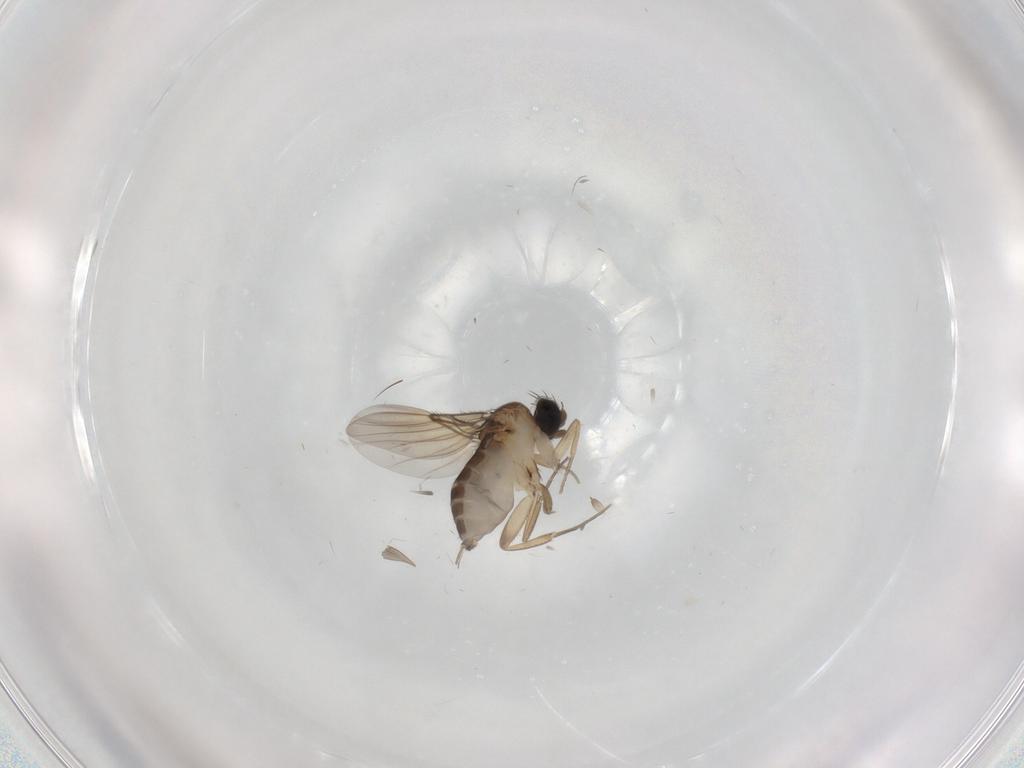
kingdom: Animalia
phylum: Arthropoda
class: Insecta
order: Diptera
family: Phoridae
